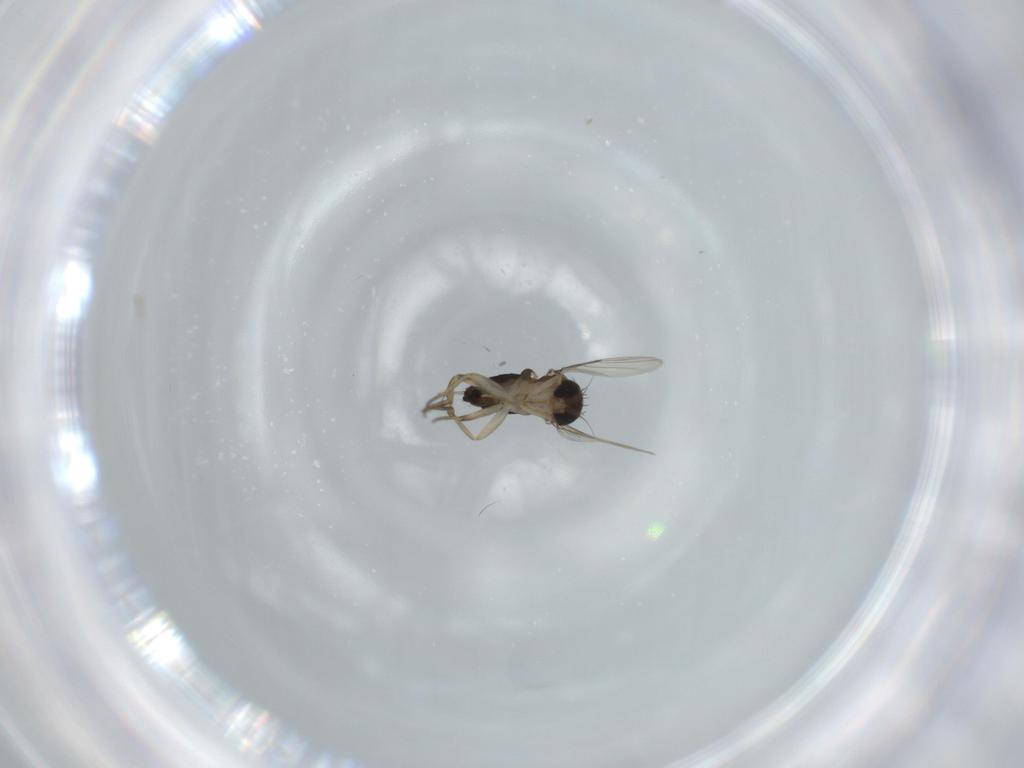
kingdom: Animalia
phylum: Arthropoda
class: Insecta
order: Diptera
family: Phoridae
